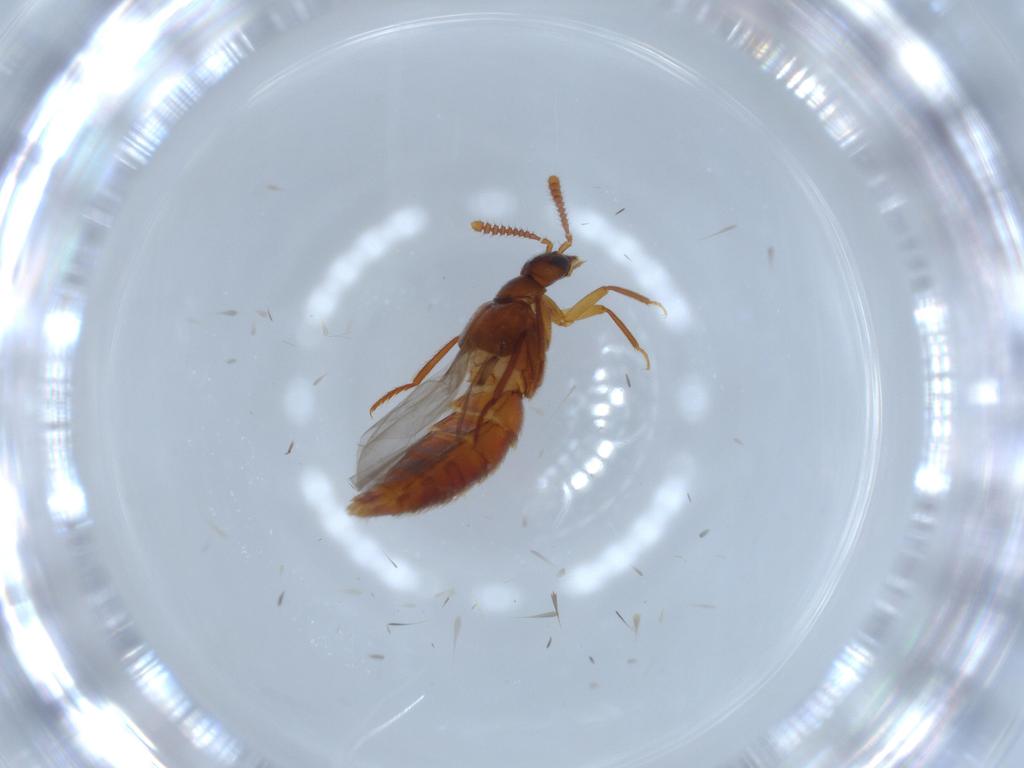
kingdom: Animalia
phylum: Arthropoda
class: Insecta
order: Coleoptera
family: Staphylinidae
